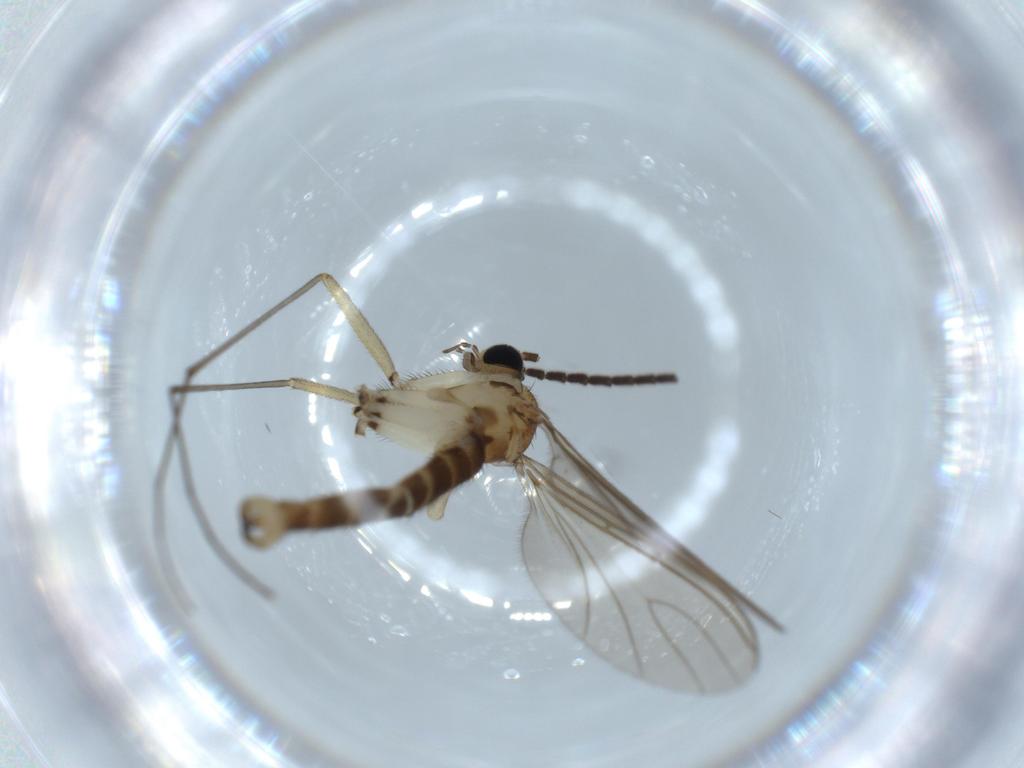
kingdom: Animalia
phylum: Arthropoda
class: Insecta
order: Diptera
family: Sciaridae
